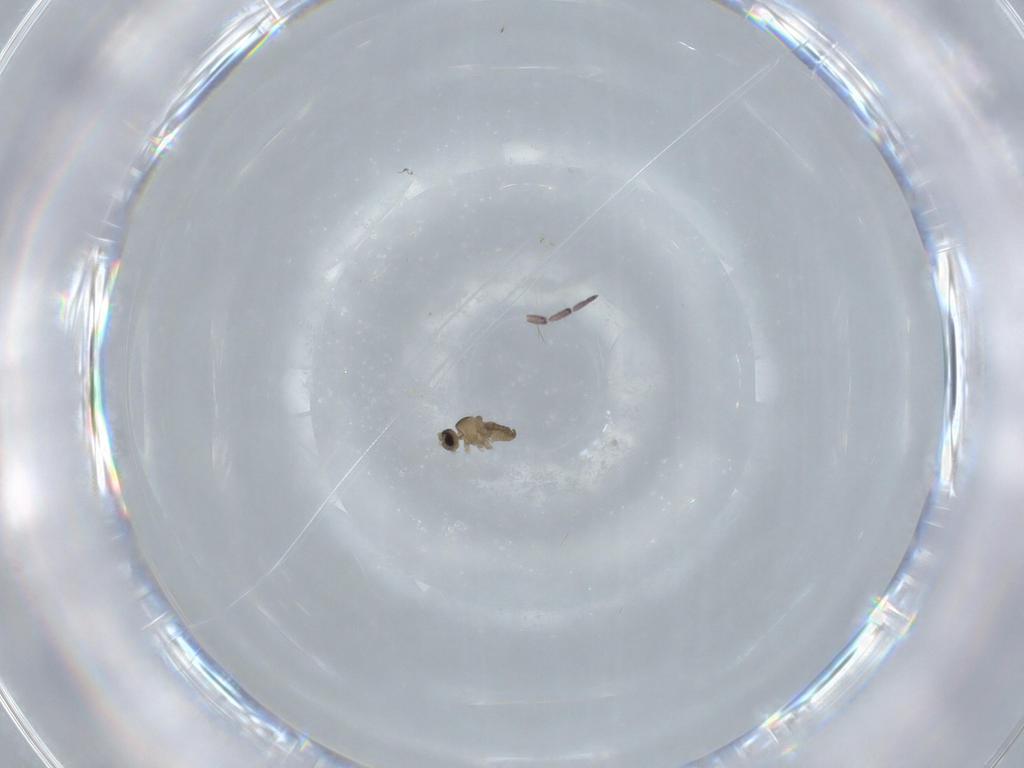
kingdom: Animalia
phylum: Arthropoda
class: Insecta
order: Diptera
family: Cecidomyiidae
